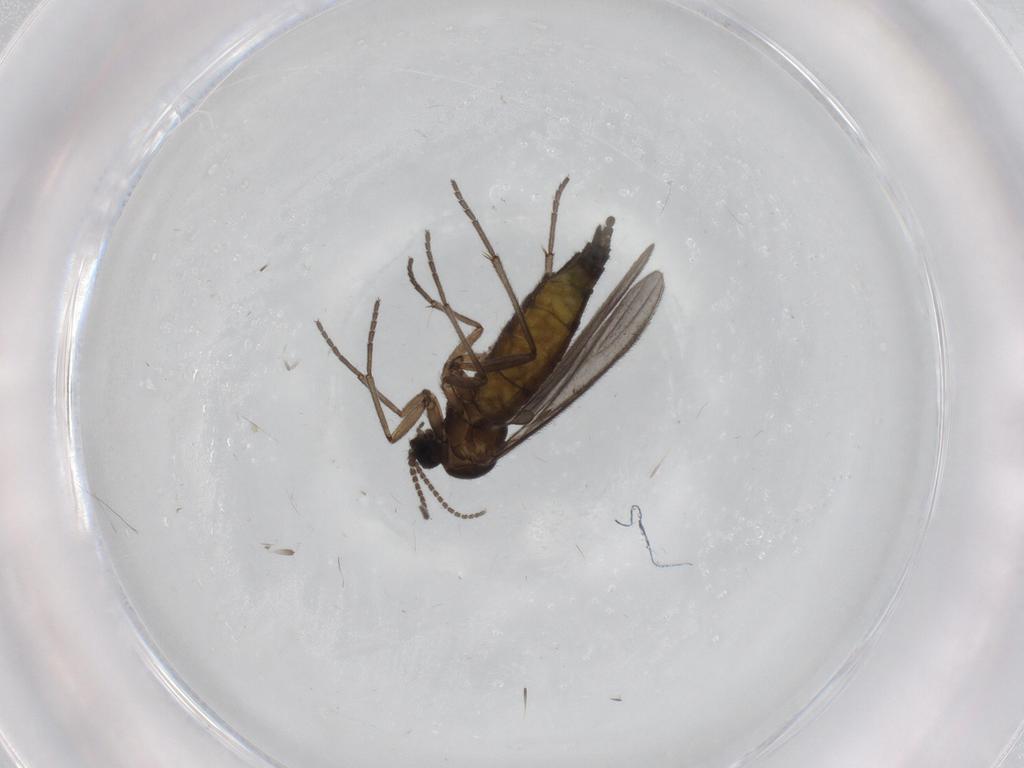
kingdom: Animalia
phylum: Arthropoda
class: Insecta
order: Diptera
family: Sciaridae
